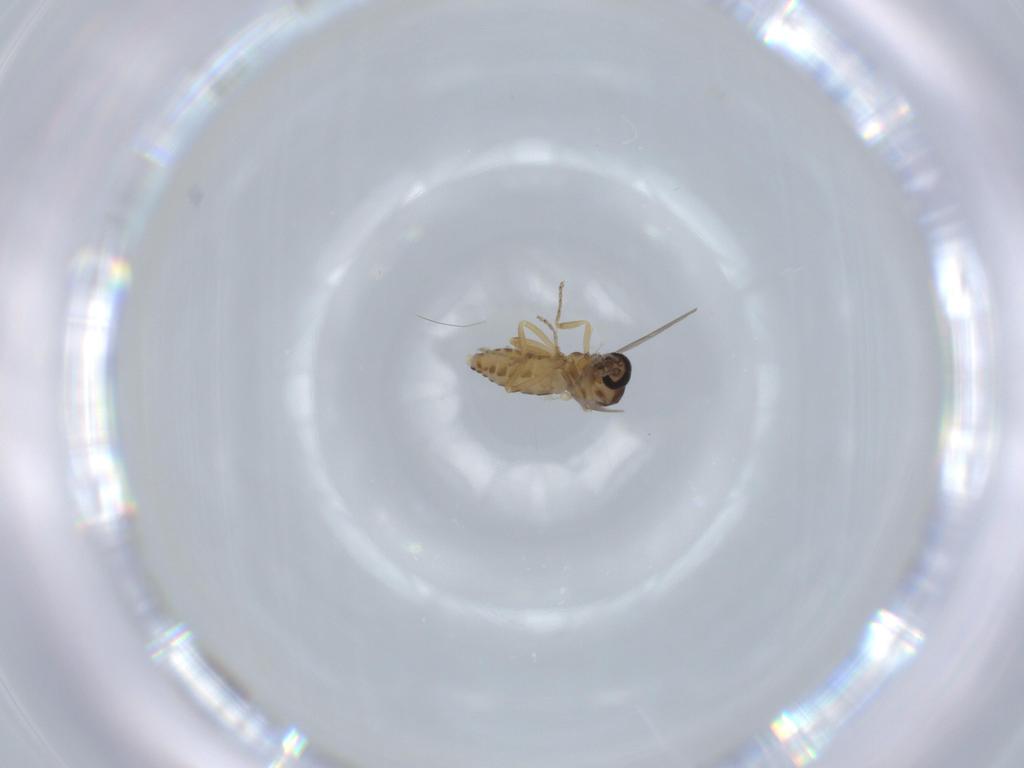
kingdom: Animalia
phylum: Arthropoda
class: Insecta
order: Diptera
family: Ceratopogonidae
